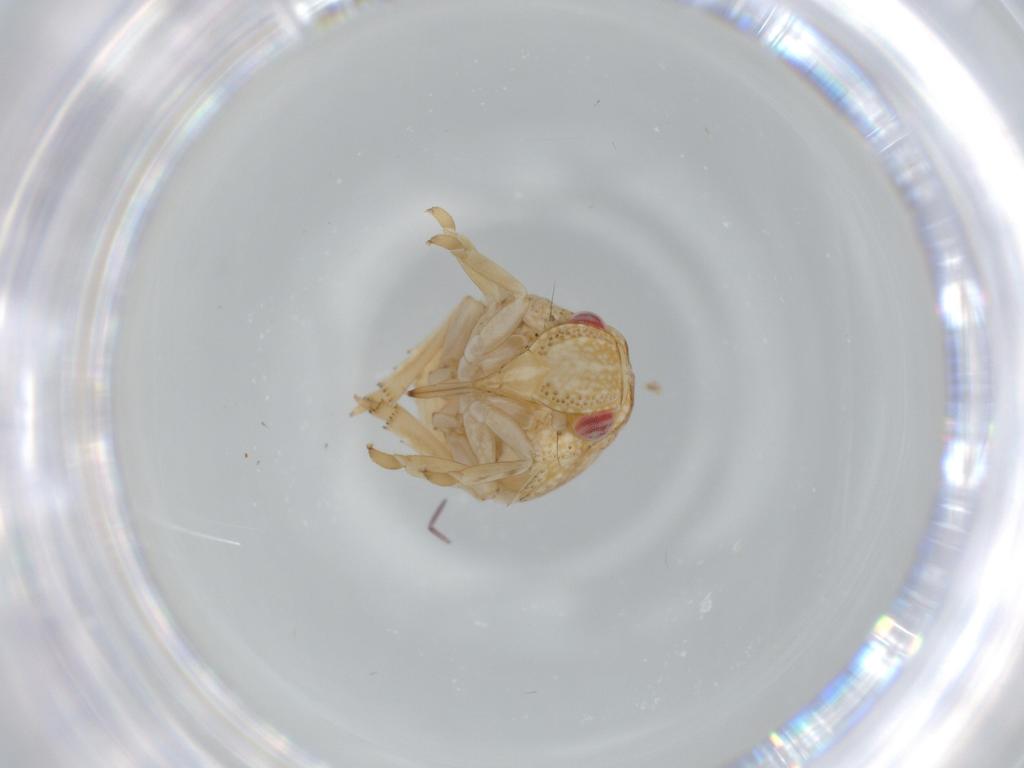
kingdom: Animalia
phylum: Arthropoda
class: Insecta
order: Hemiptera
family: Acanaloniidae
